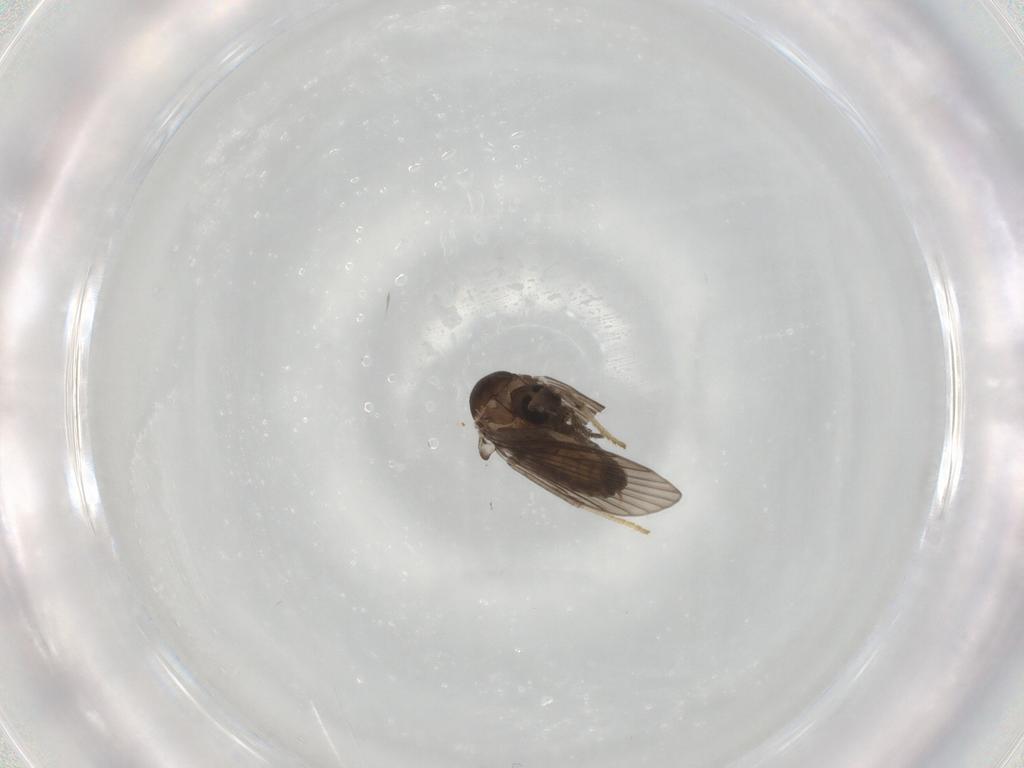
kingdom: Animalia
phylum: Arthropoda
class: Insecta
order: Diptera
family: Psychodidae
